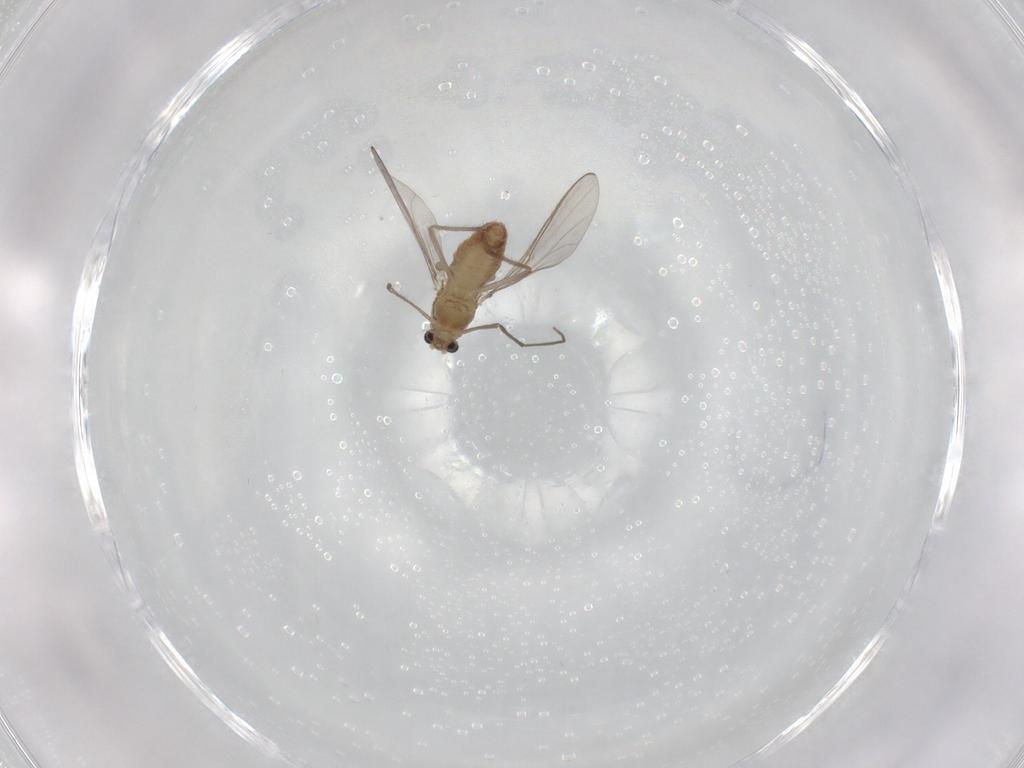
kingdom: Animalia
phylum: Arthropoda
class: Insecta
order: Diptera
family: Chironomidae
